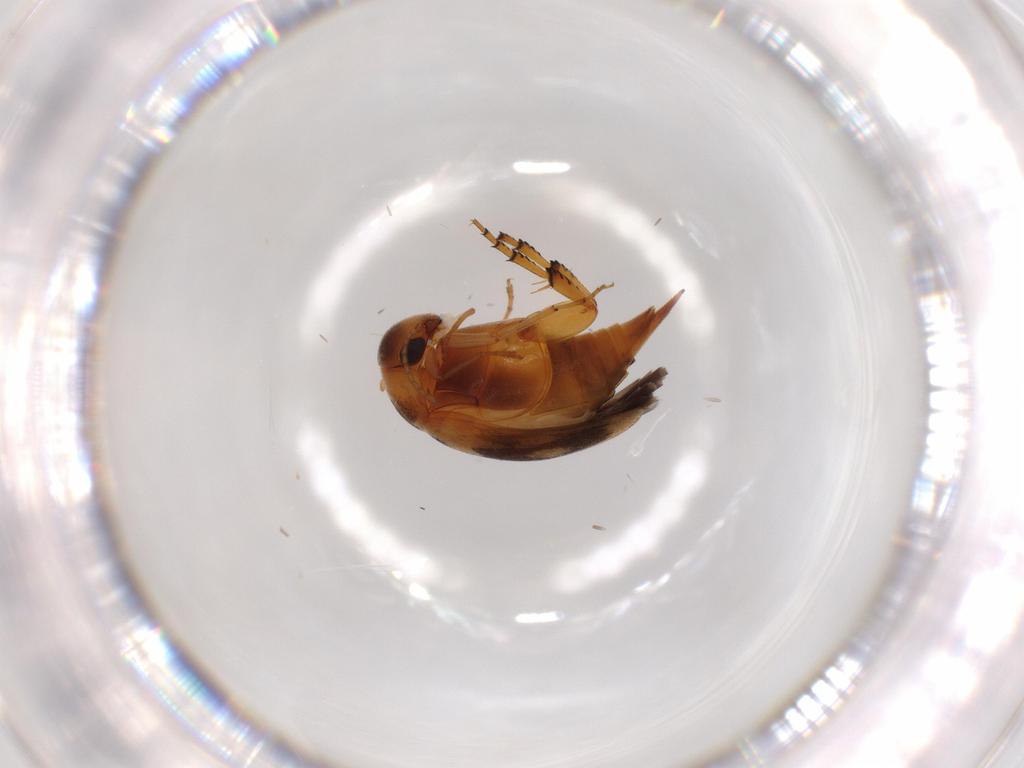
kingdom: Animalia
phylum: Arthropoda
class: Insecta
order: Coleoptera
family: Mordellidae
